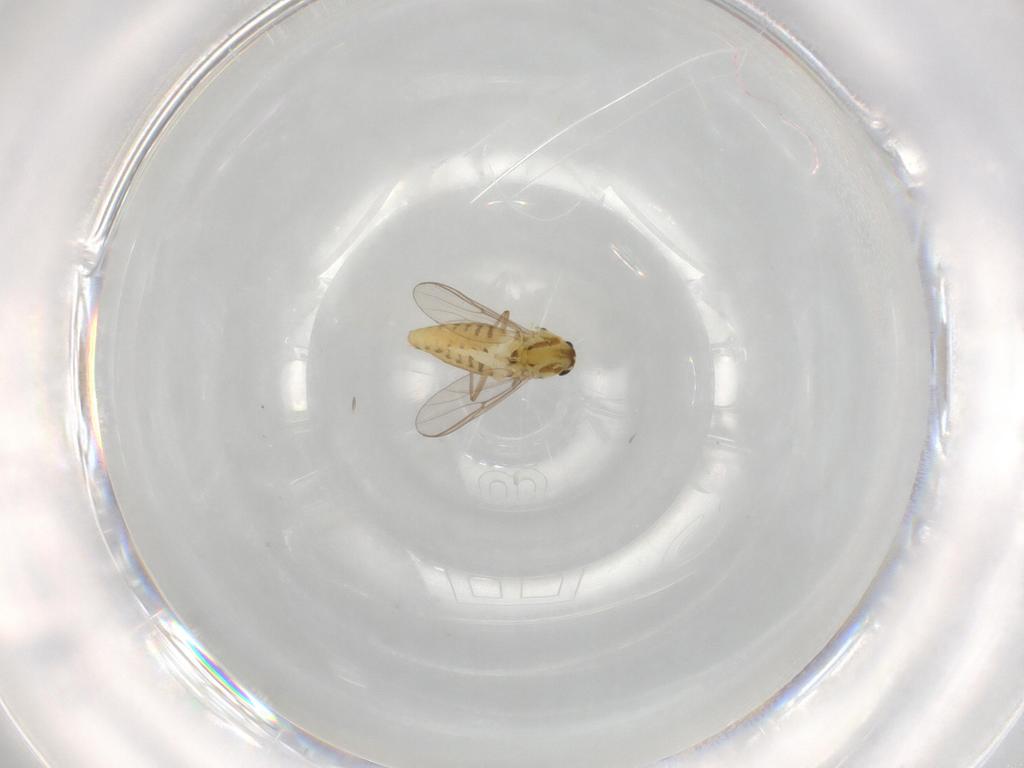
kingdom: Animalia
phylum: Arthropoda
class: Insecta
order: Diptera
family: Chironomidae
